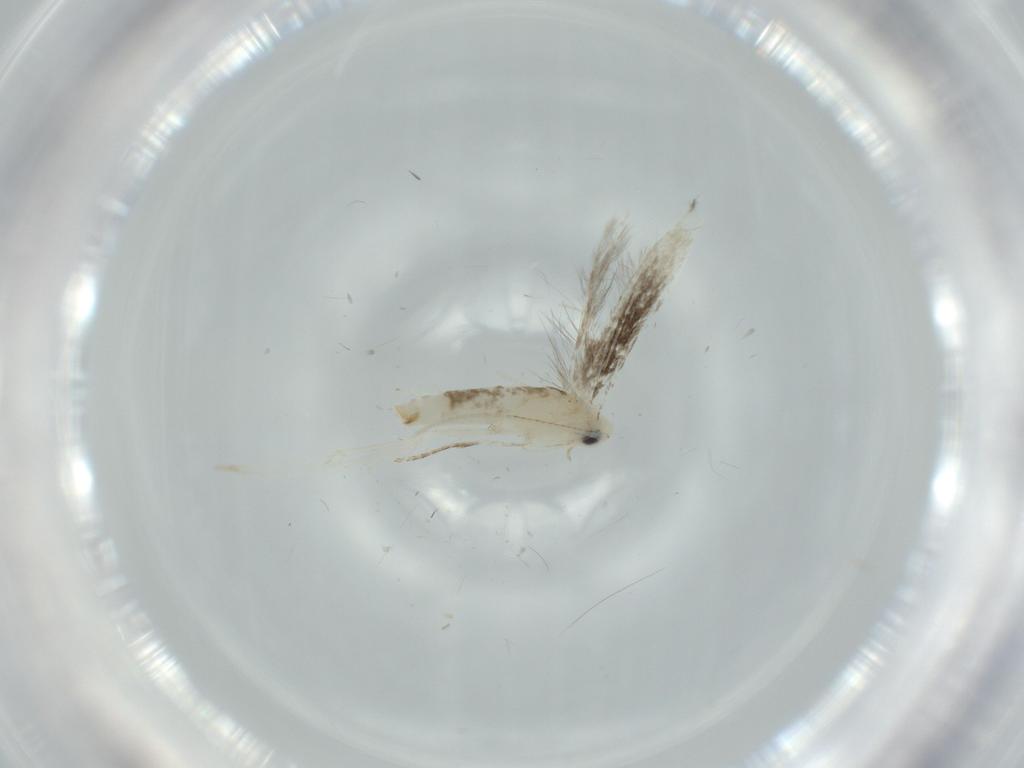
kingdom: Animalia
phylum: Arthropoda
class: Insecta
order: Lepidoptera
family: Nepticulidae
